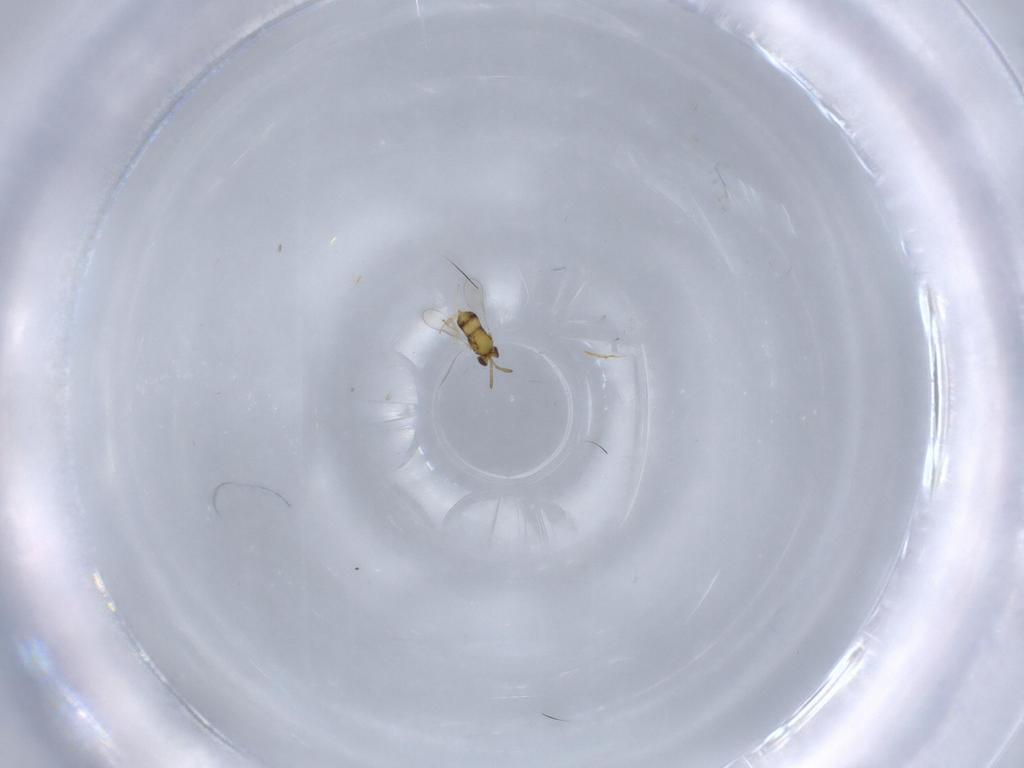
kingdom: Animalia
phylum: Arthropoda
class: Insecta
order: Hymenoptera
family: Aphelinidae
